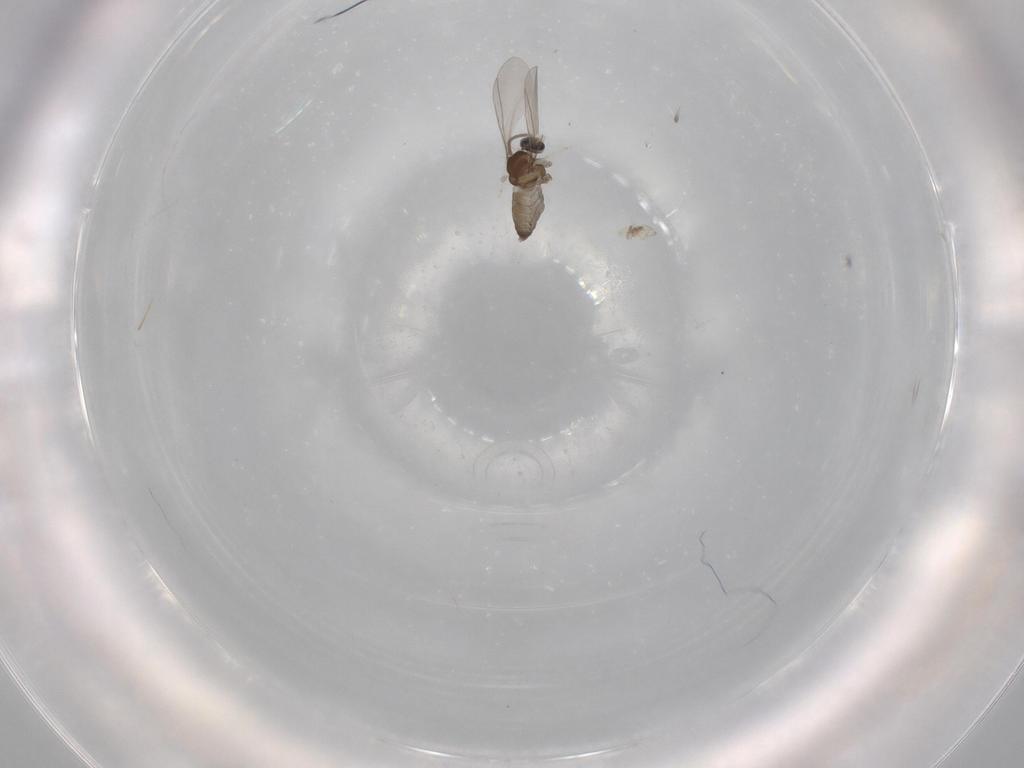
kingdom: Animalia
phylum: Arthropoda
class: Insecta
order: Diptera
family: Cecidomyiidae
